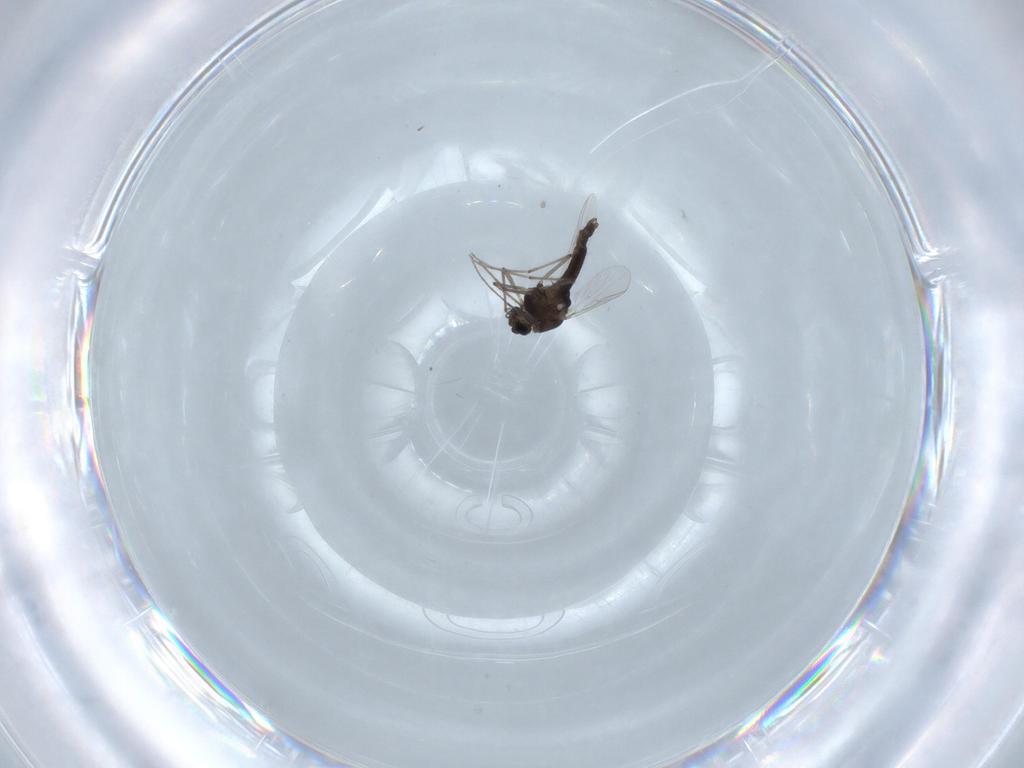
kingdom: Animalia
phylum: Arthropoda
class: Insecta
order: Diptera
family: Chironomidae
